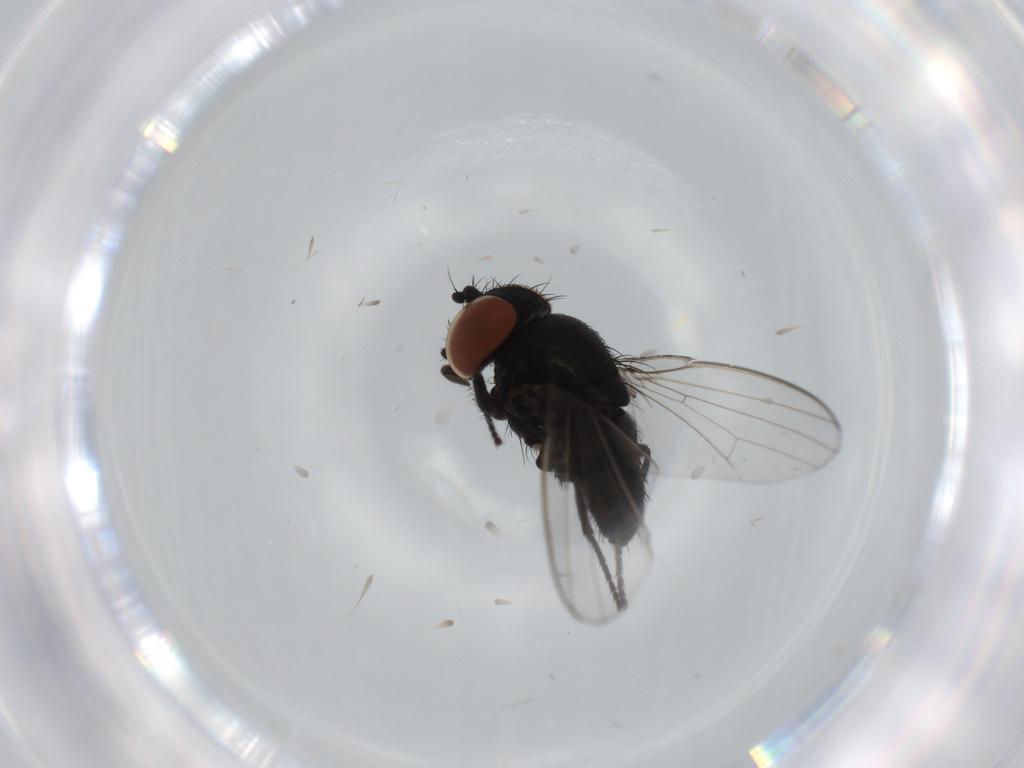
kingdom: Animalia
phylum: Arthropoda
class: Insecta
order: Diptera
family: Milichiidae
